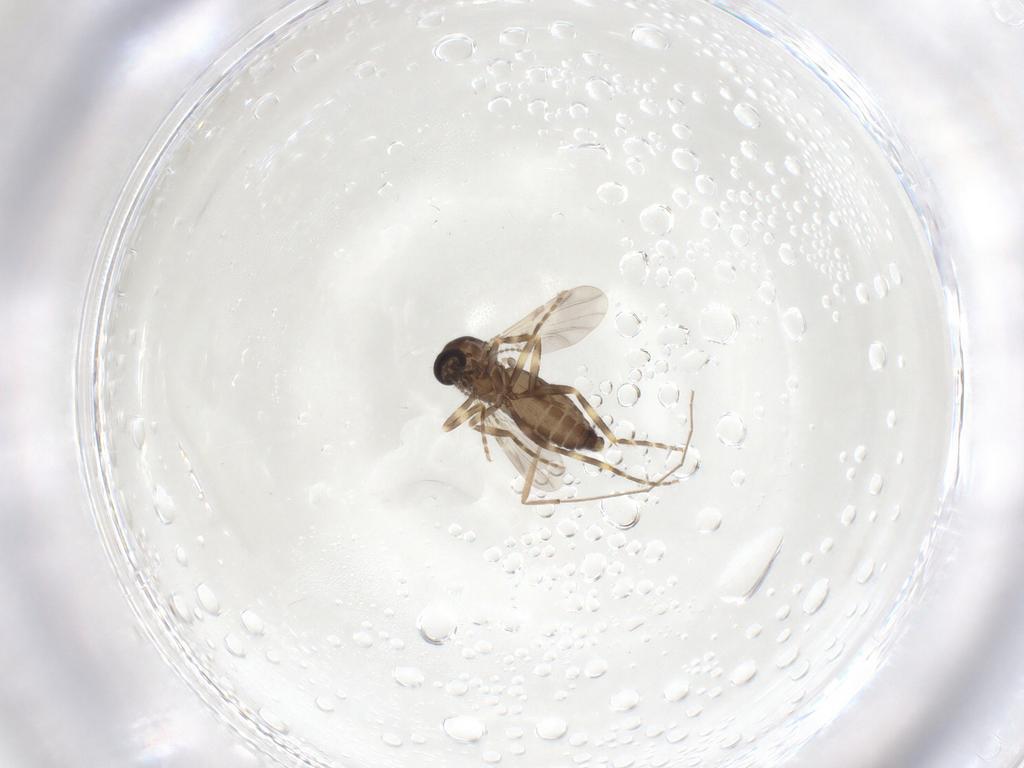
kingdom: Animalia
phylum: Arthropoda
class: Insecta
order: Diptera
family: Ceratopogonidae
